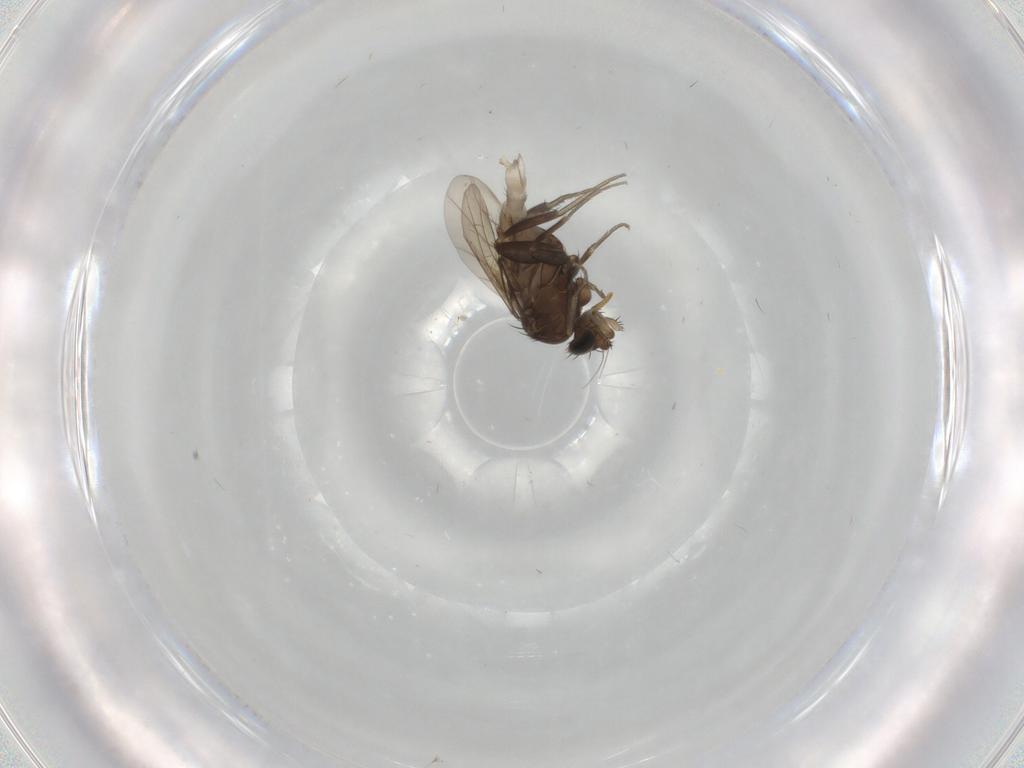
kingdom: Animalia
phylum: Arthropoda
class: Insecta
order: Diptera
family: Phoridae
